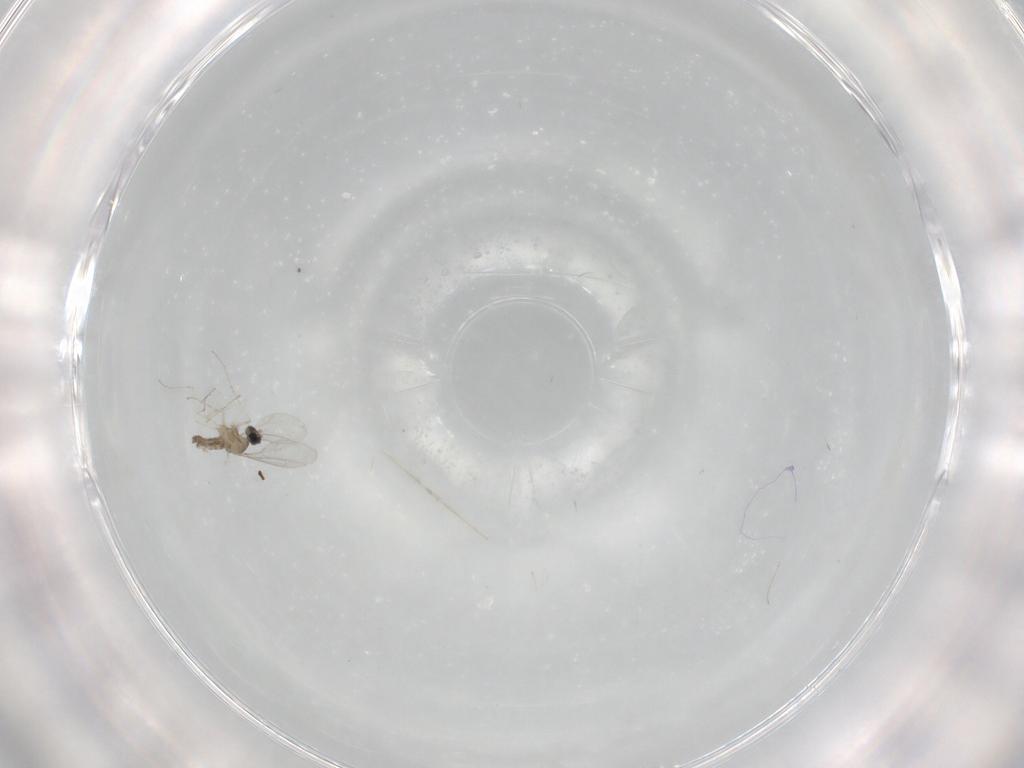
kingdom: Animalia
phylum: Arthropoda
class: Insecta
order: Diptera
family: Cecidomyiidae
